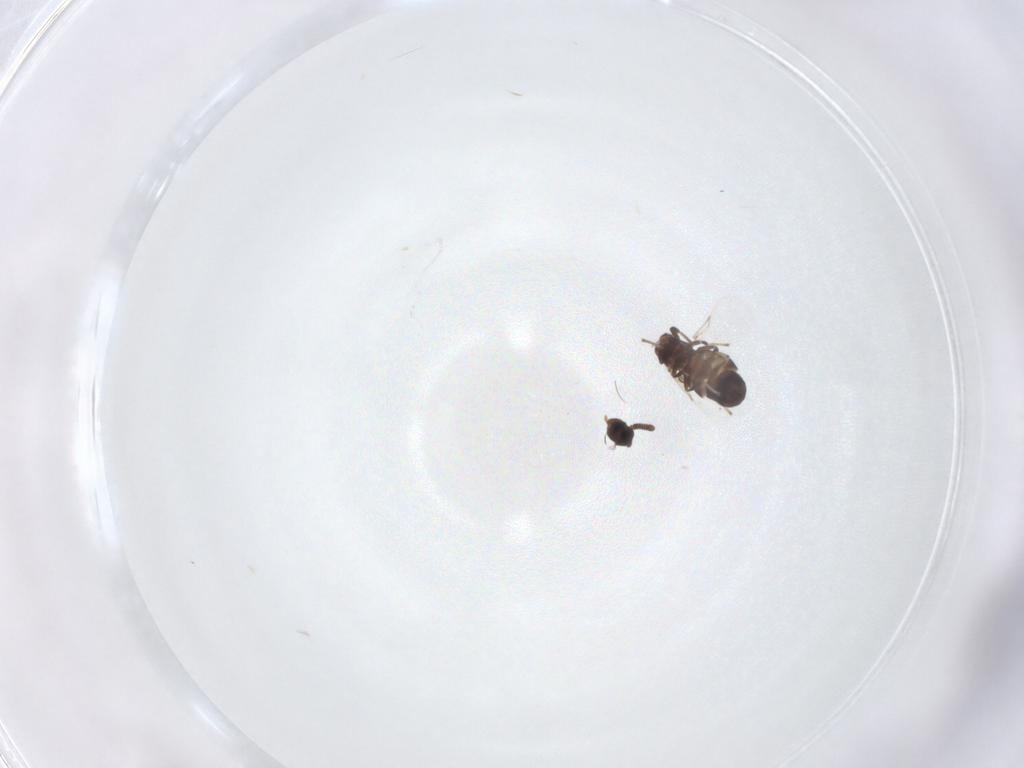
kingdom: Animalia
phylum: Arthropoda
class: Insecta
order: Diptera
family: Scatopsidae
